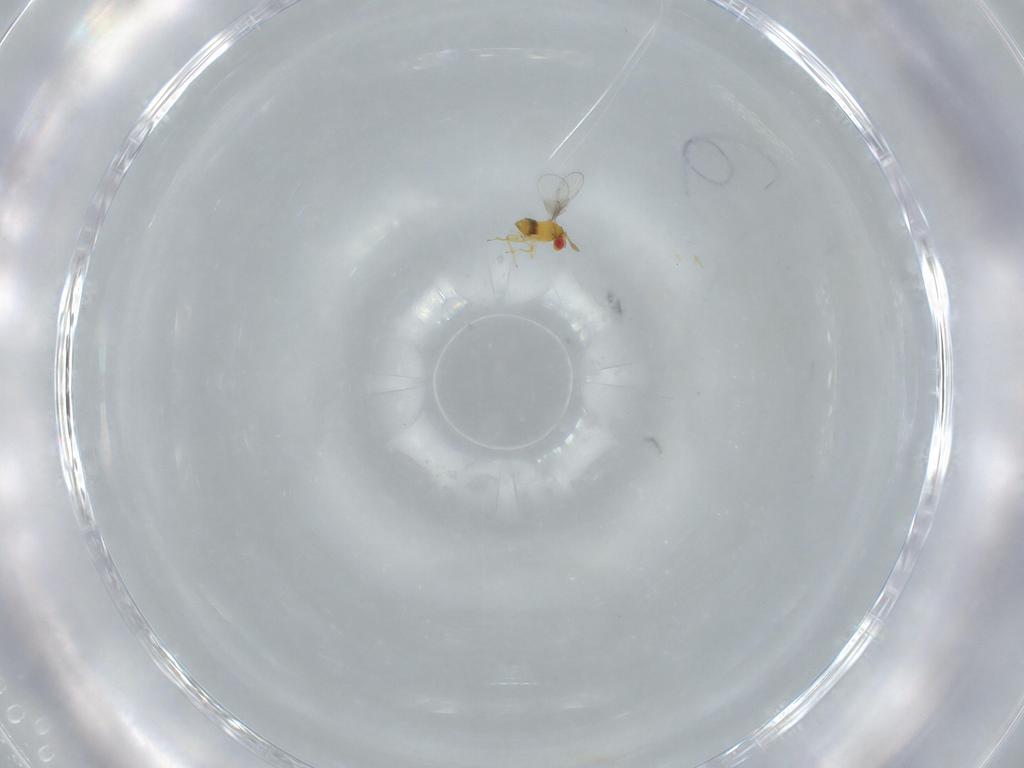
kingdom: Animalia
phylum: Arthropoda
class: Insecta
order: Hymenoptera
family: Trichogrammatidae
